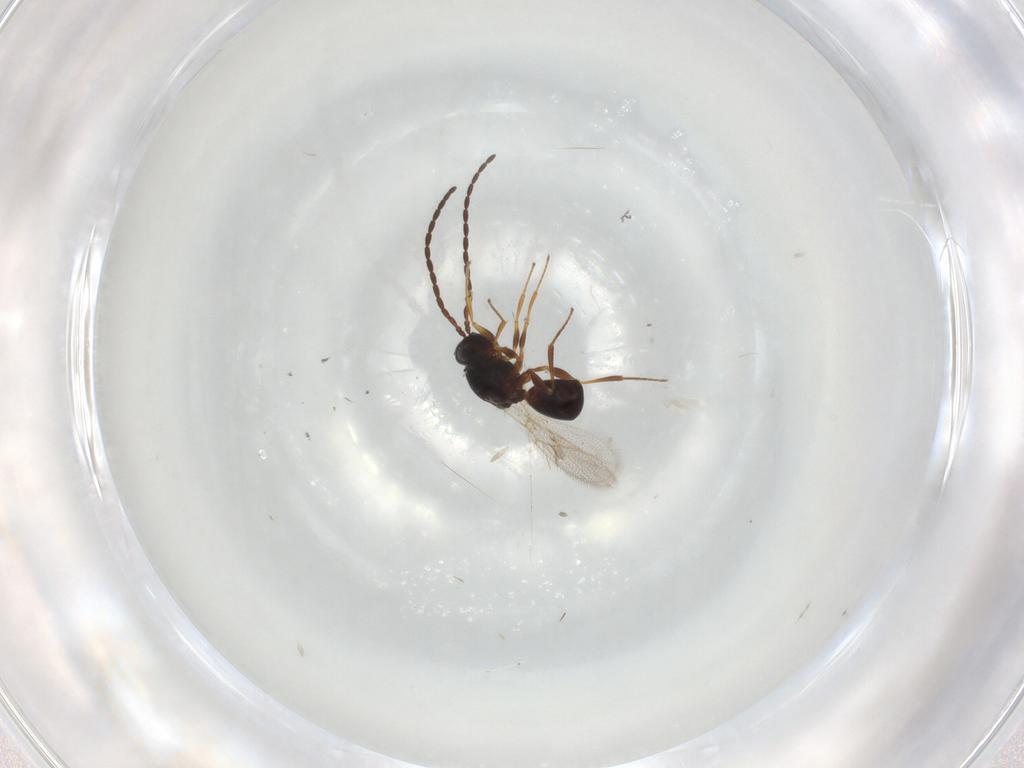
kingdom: Animalia
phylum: Arthropoda
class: Insecta
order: Hymenoptera
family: Figitidae
